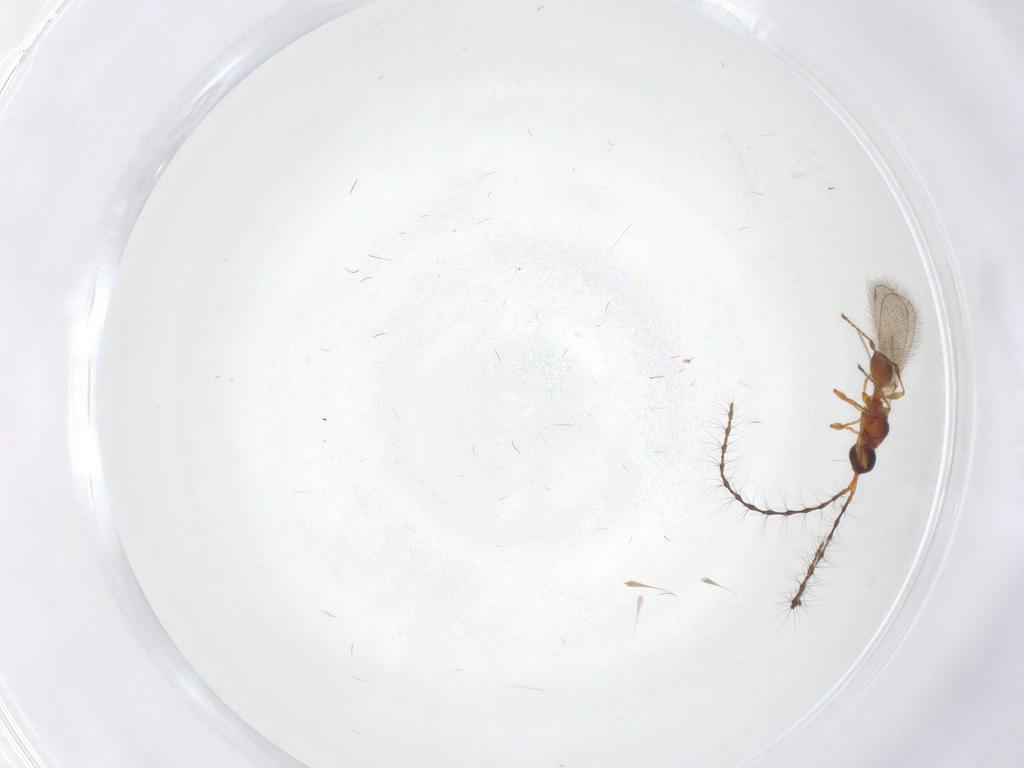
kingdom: Animalia
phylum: Arthropoda
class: Insecta
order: Hymenoptera
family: Diapriidae
